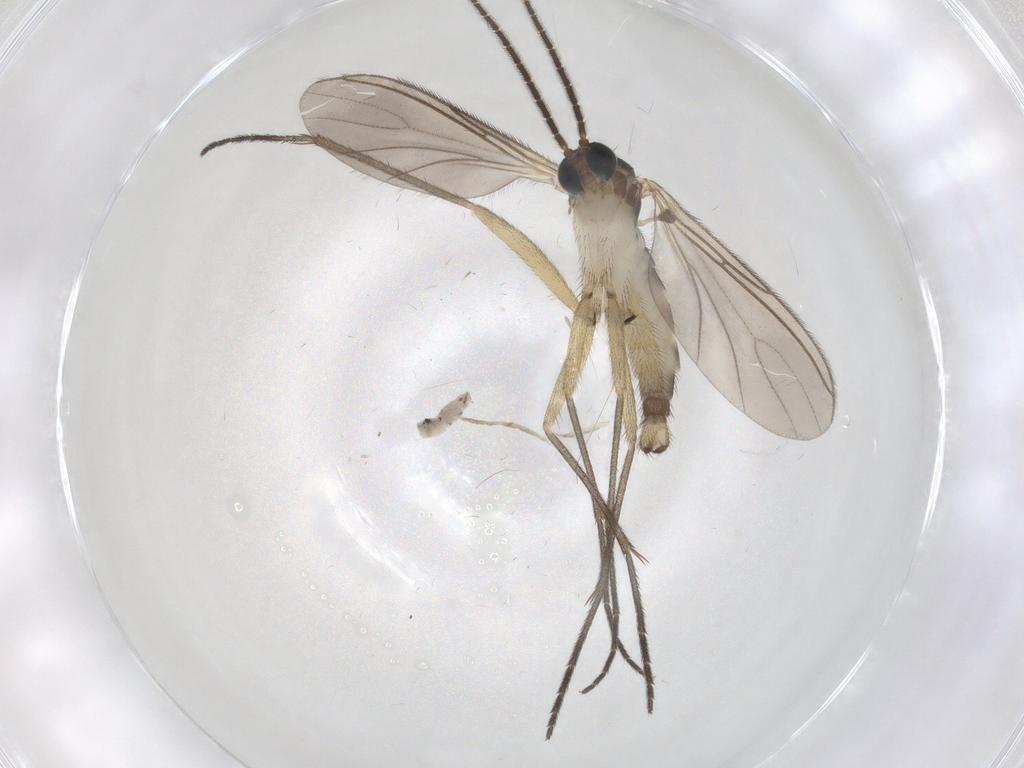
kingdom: Animalia
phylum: Arthropoda
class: Insecta
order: Diptera
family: Sciaridae
